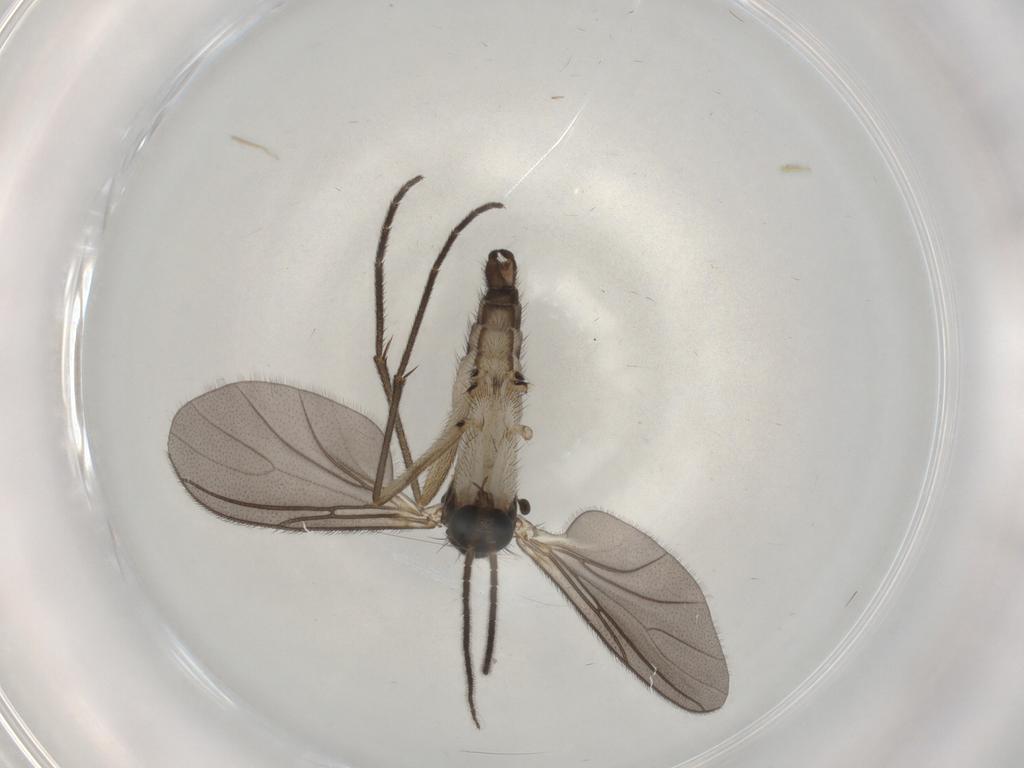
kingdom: Animalia
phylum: Arthropoda
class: Insecta
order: Diptera
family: Sciaridae
